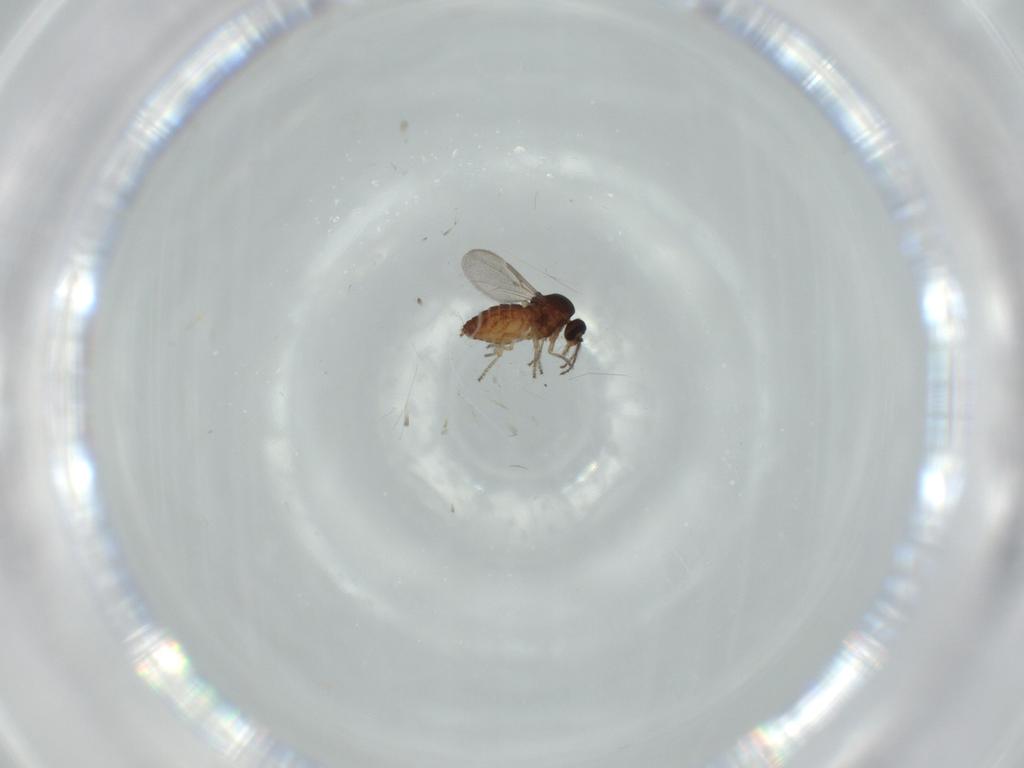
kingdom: Animalia
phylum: Arthropoda
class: Insecta
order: Diptera
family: Ceratopogonidae
